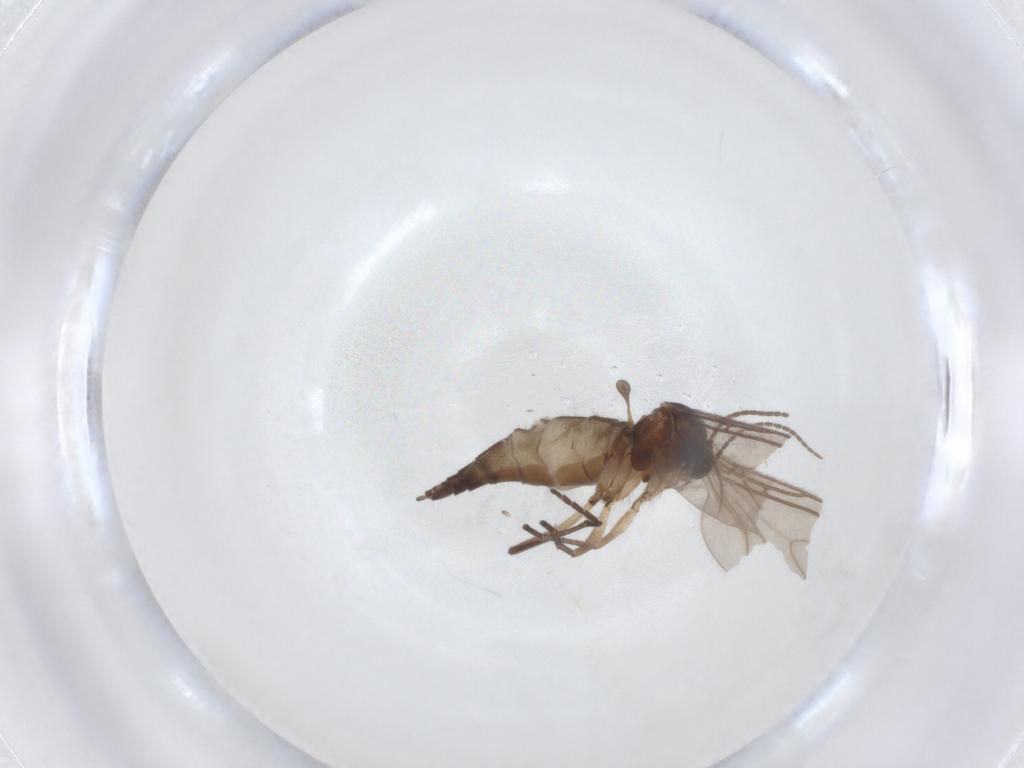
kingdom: Animalia
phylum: Arthropoda
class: Insecta
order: Diptera
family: Sciaridae
